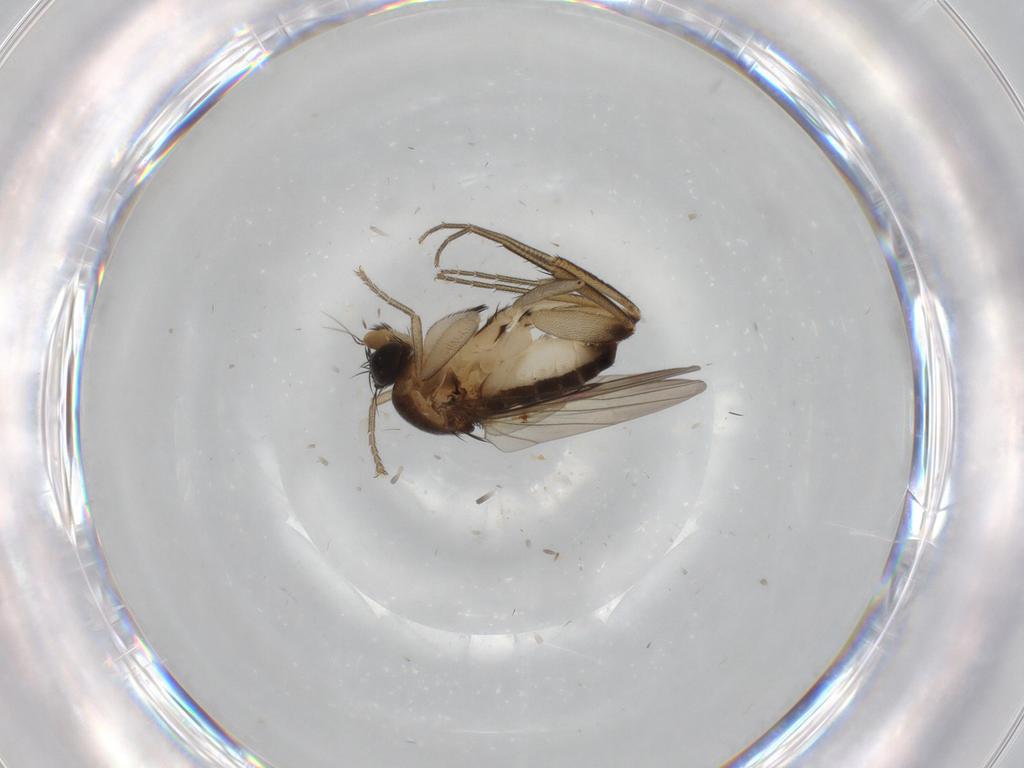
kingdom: Animalia
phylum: Arthropoda
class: Insecta
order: Diptera
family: Phoridae
